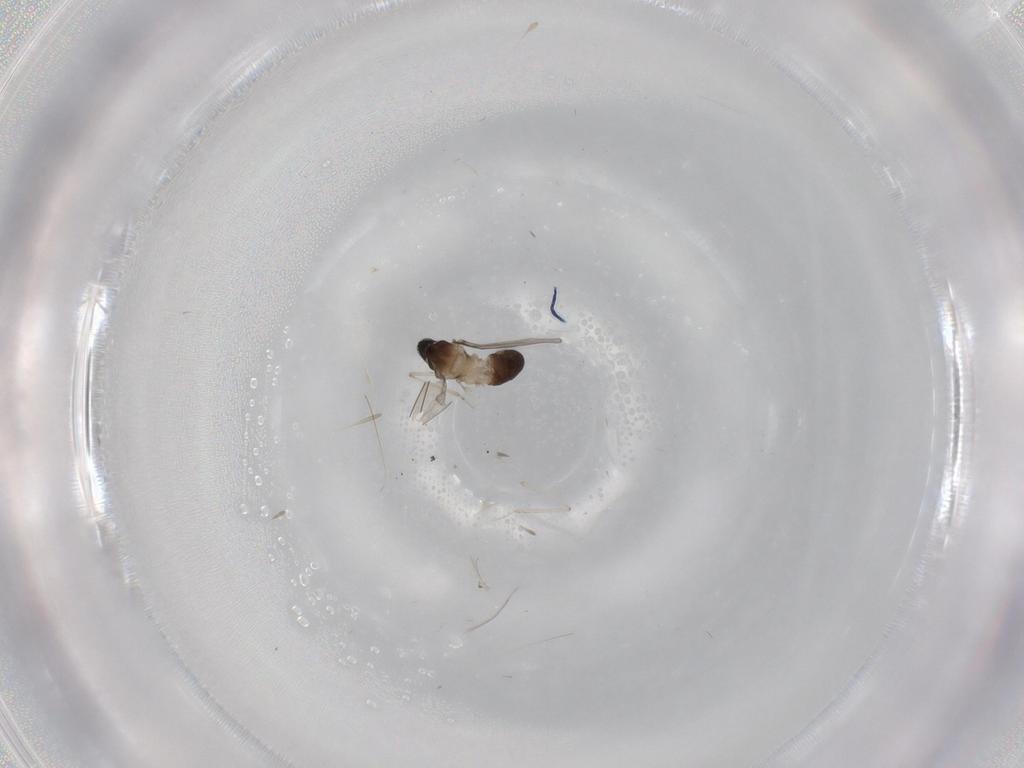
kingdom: Animalia
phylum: Arthropoda
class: Insecta
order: Diptera
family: Cecidomyiidae
